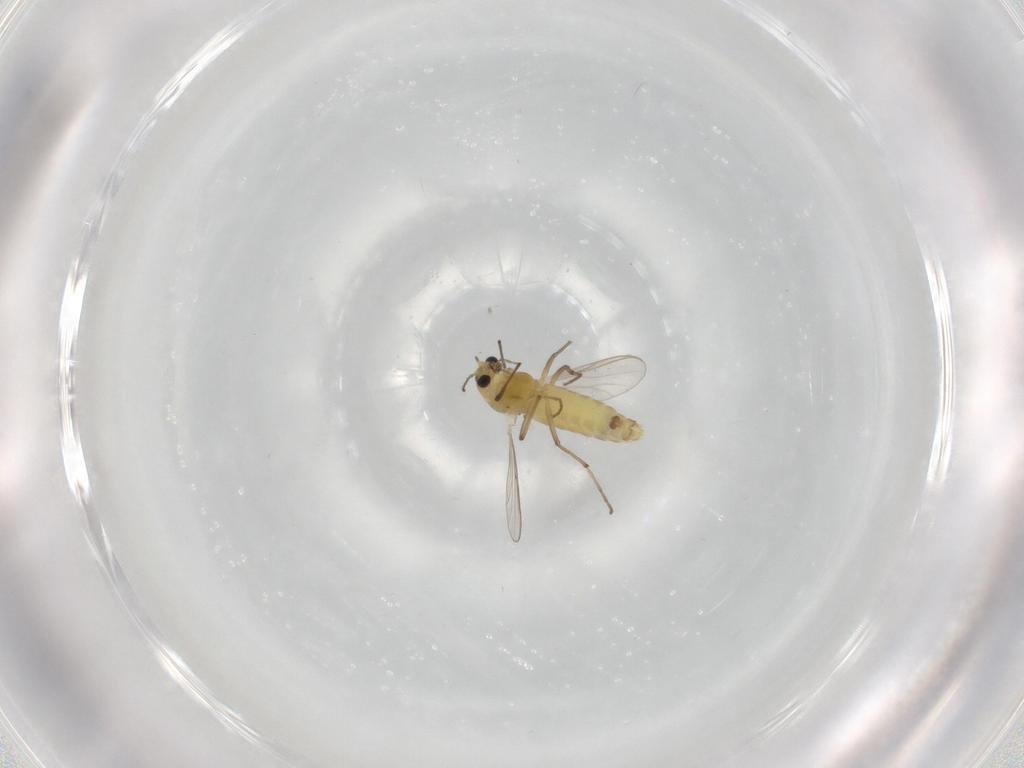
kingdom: Animalia
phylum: Arthropoda
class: Insecta
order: Diptera
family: Chironomidae
